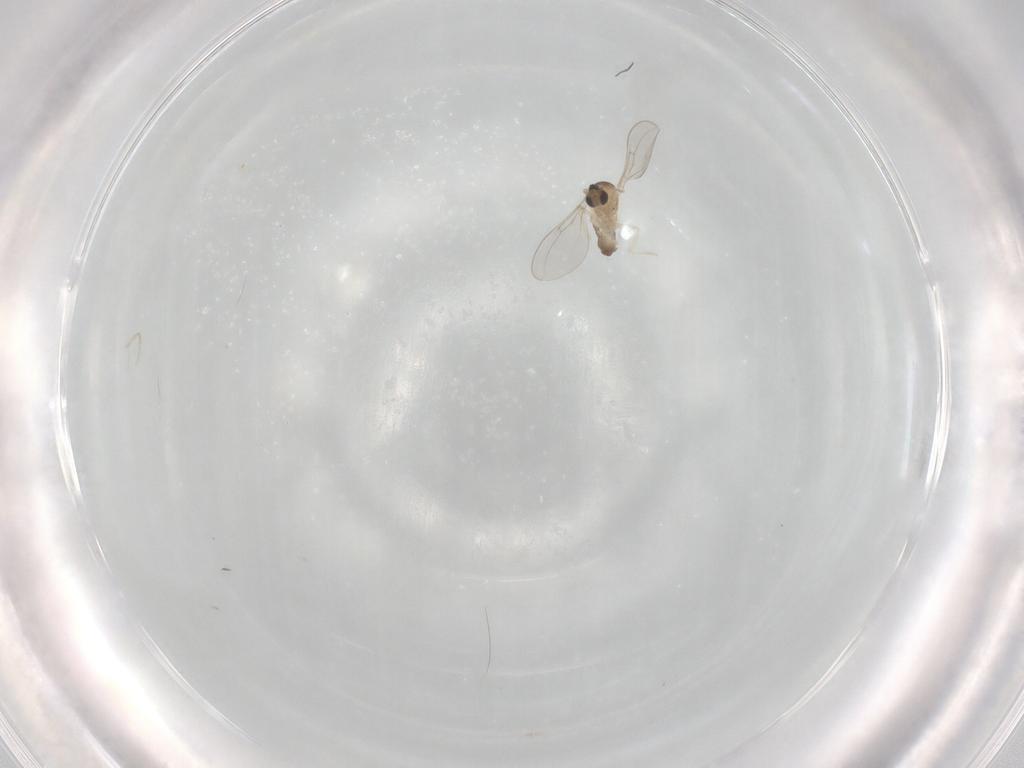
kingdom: Animalia
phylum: Arthropoda
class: Insecta
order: Diptera
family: Cecidomyiidae
